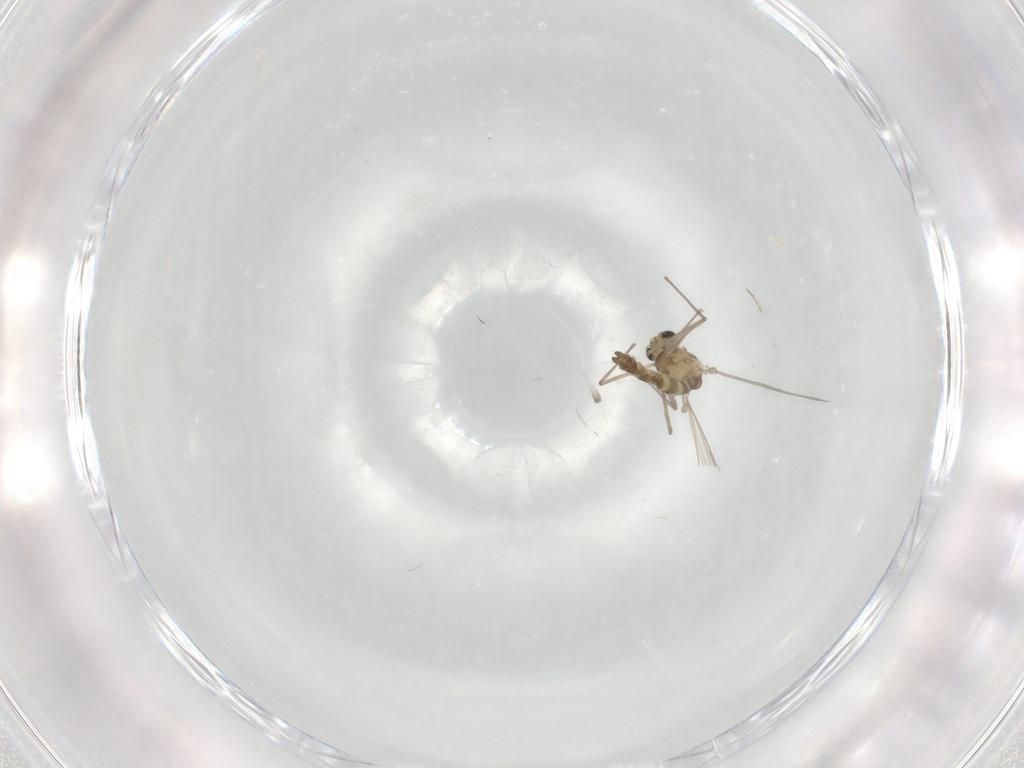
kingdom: Animalia
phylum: Arthropoda
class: Insecta
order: Diptera
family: Chironomidae
